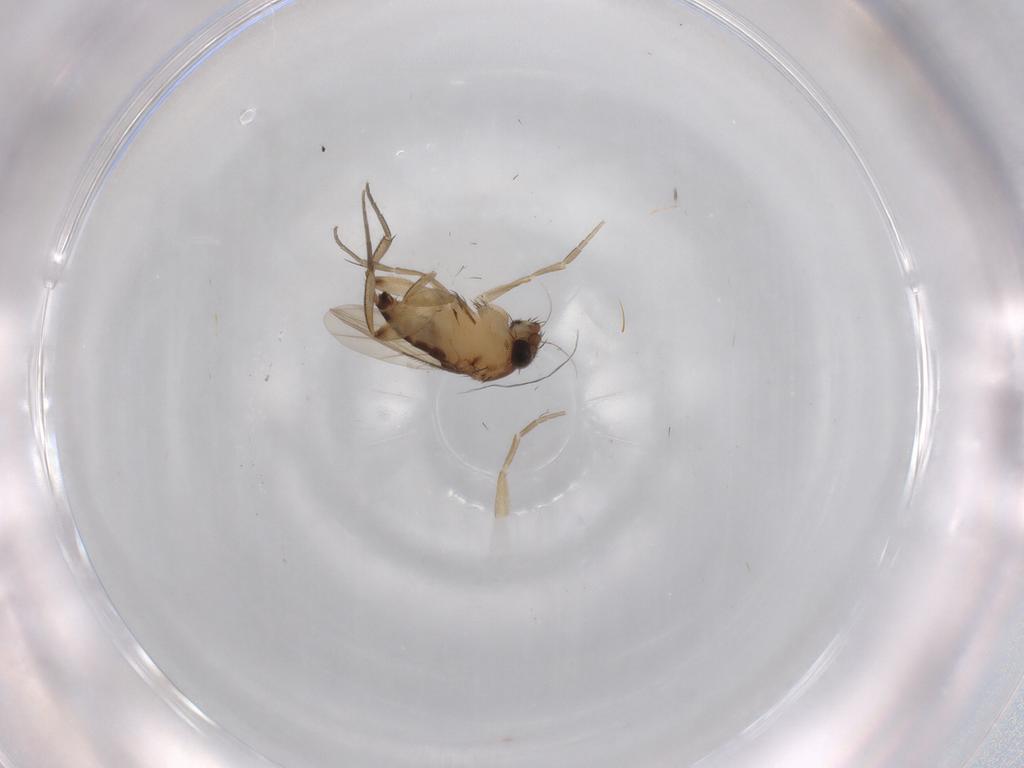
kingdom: Animalia
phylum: Arthropoda
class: Insecta
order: Diptera
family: Phoridae
